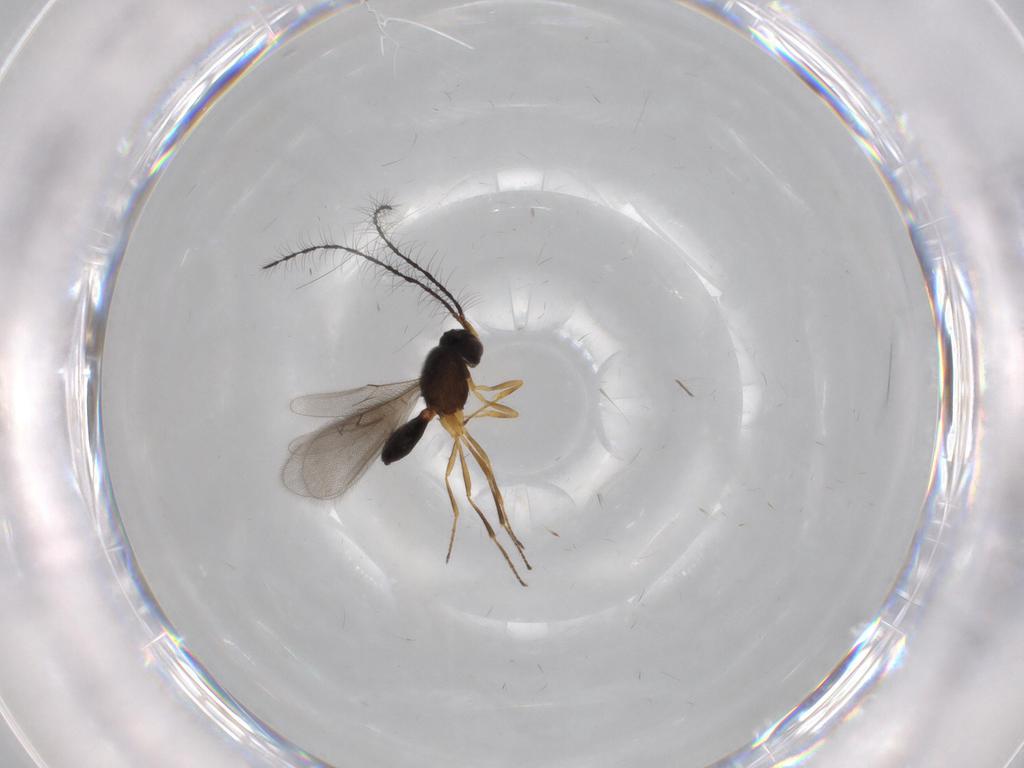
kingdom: Animalia
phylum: Arthropoda
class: Insecta
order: Hymenoptera
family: Scelionidae
